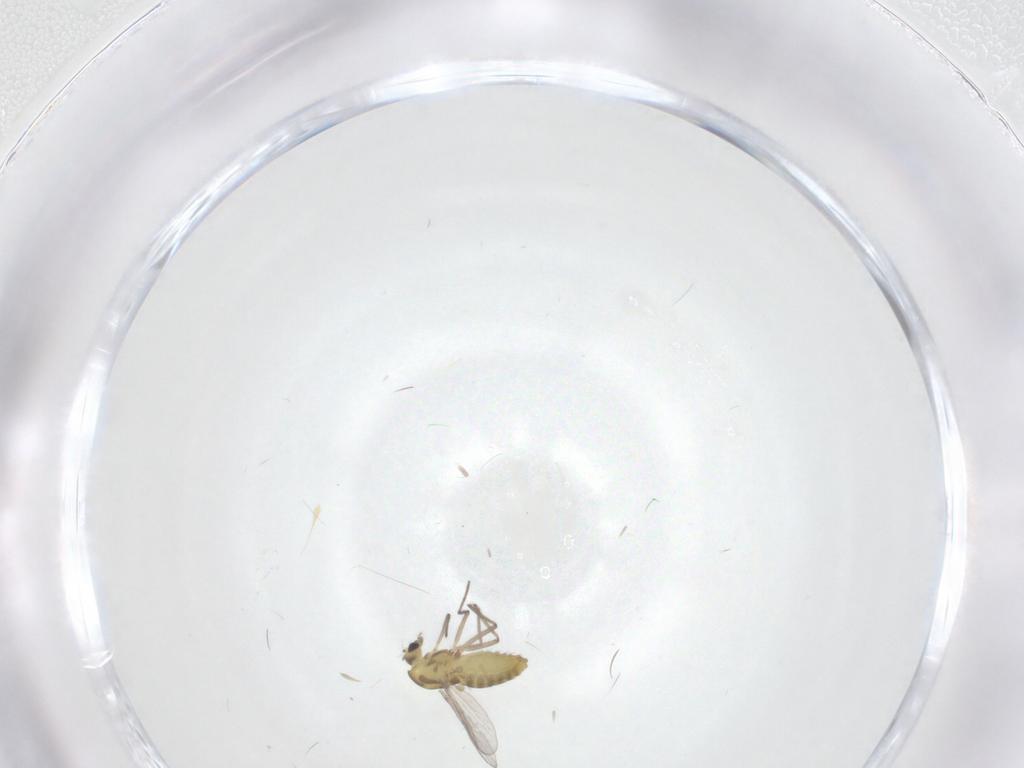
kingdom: Animalia
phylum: Arthropoda
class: Insecta
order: Diptera
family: Chironomidae
